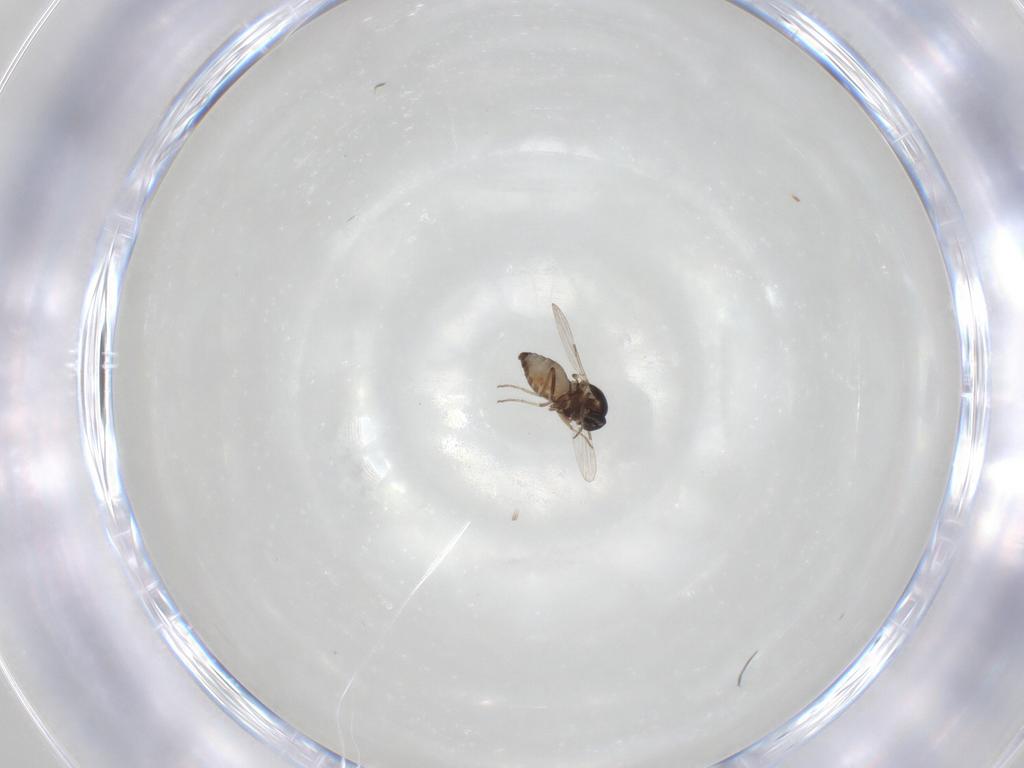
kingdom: Animalia
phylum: Arthropoda
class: Insecta
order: Diptera
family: Ceratopogonidae
